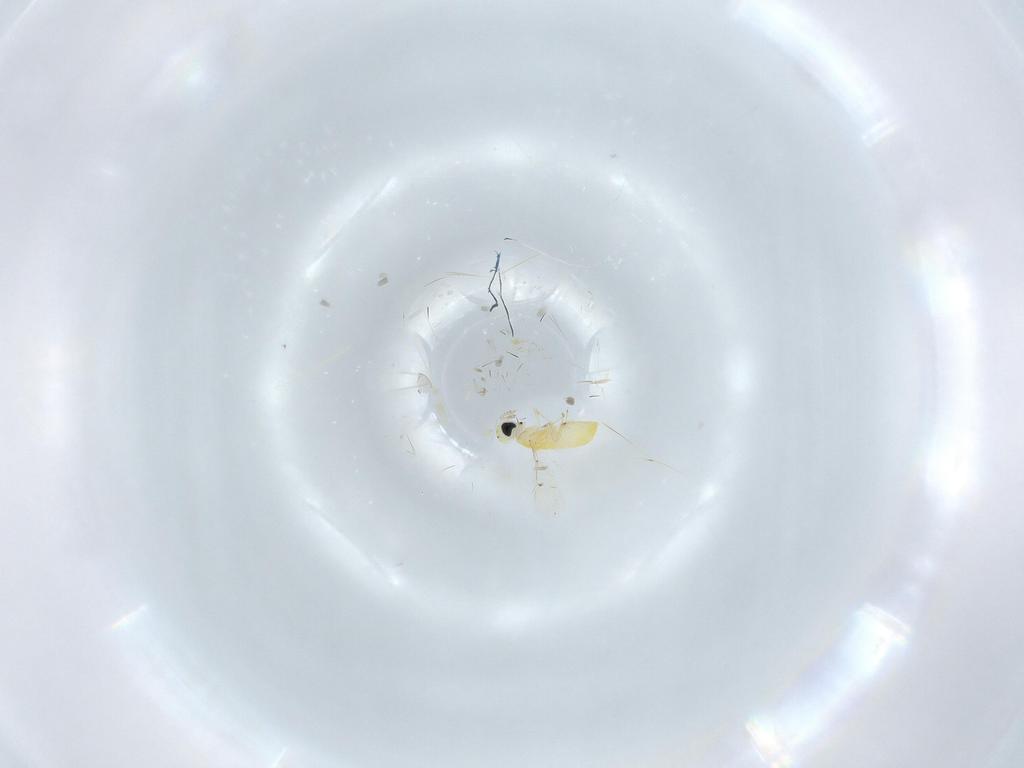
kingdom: Animalia
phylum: Arthropoda
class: Insecta
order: Hymenoptera
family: Trichogrammatidae
